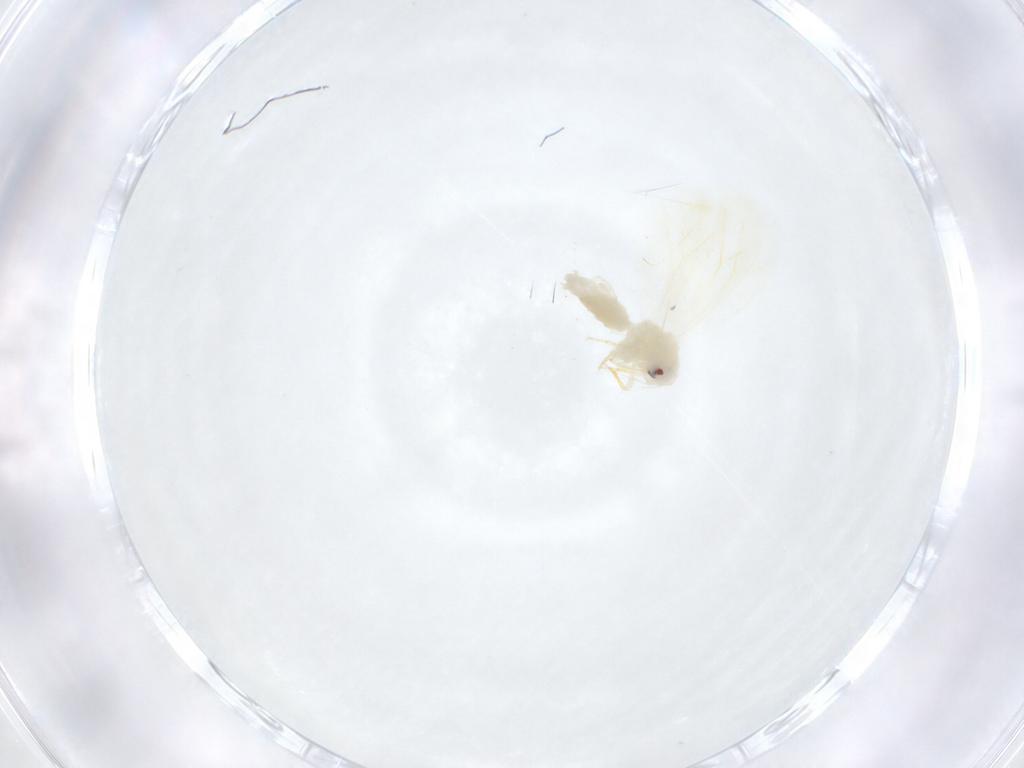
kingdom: Animalia
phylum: Arthropoda
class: Insecta
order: Hemiptera
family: Aleyrodidae
